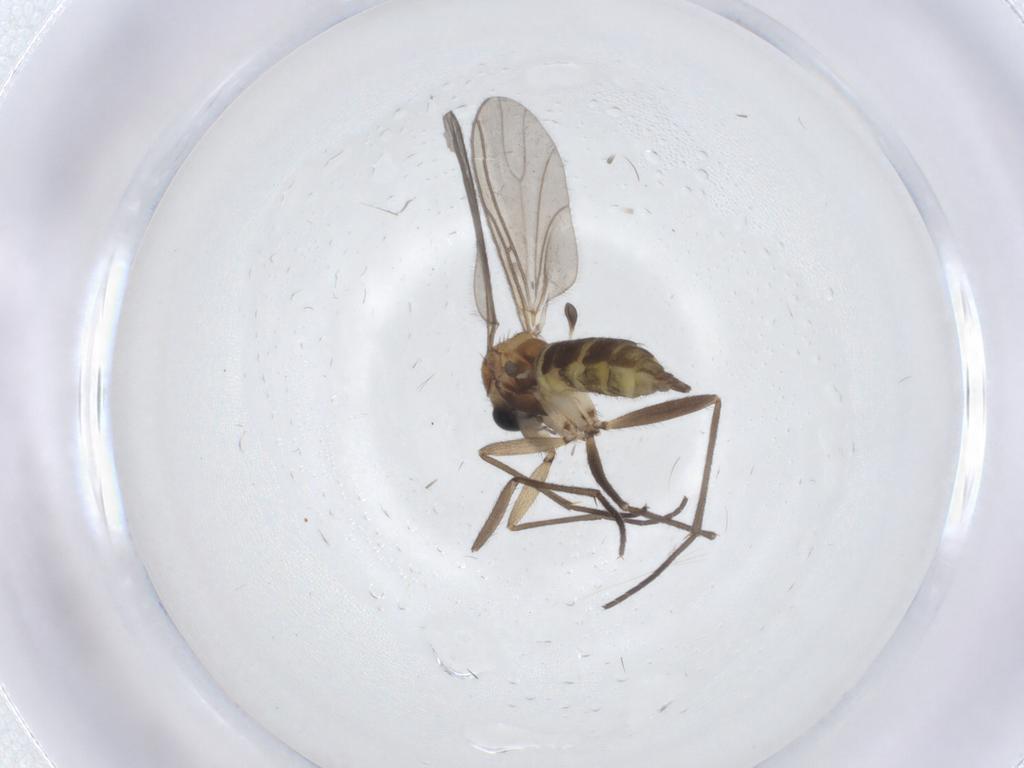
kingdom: Animalia
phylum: Arthropoda
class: Insecta
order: Diptera
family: Sciaridae
